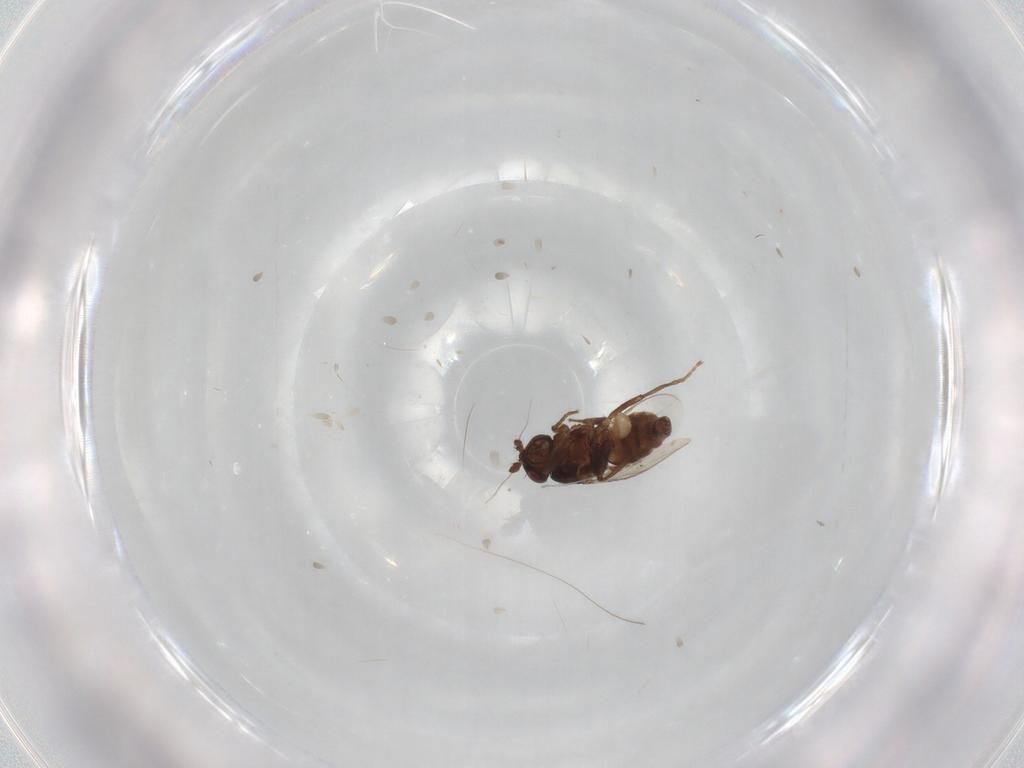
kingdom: Animalia
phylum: Arthropoda
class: Insecta
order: Diptera
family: Sphaeroceridae
